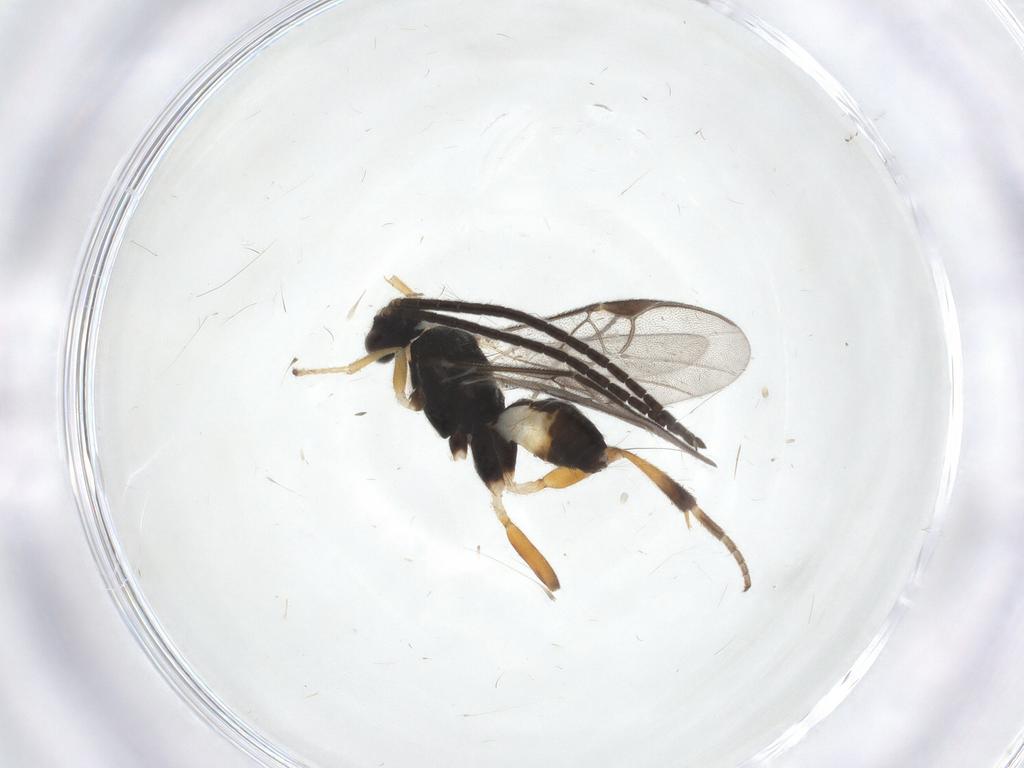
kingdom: Animalia
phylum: Arthropoda
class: Insecta
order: Hymenoptera
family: Braconidae
